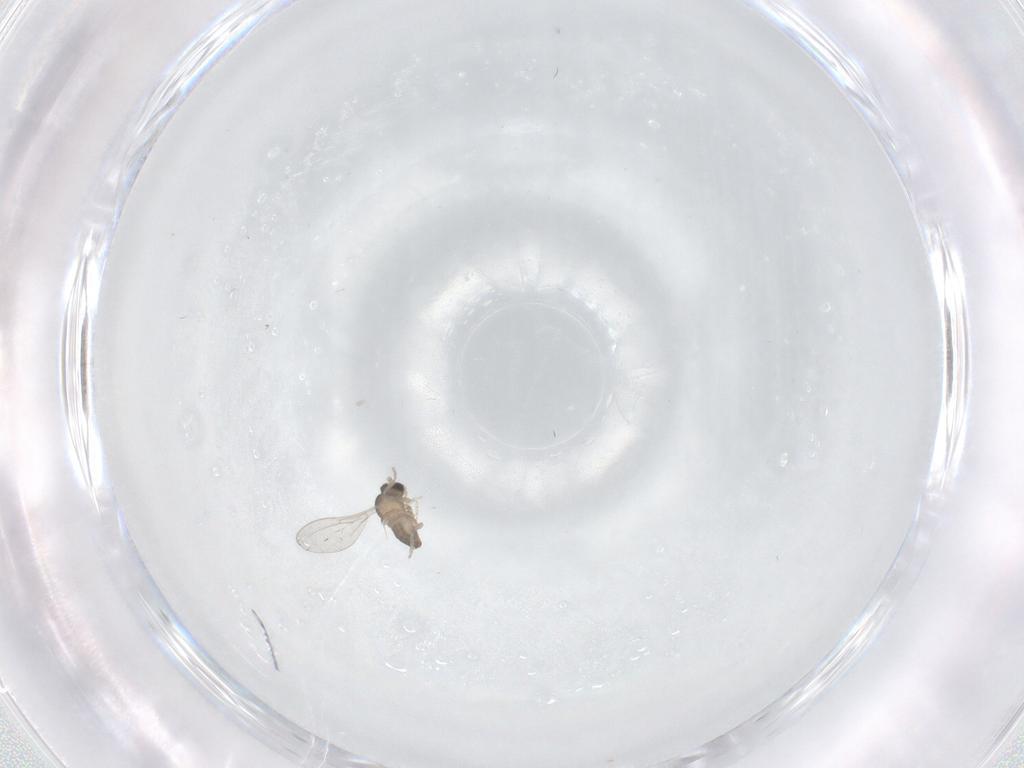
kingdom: Animalia
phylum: Arthropoda
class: Insecta
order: Diptera
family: Cecidomyiidae
